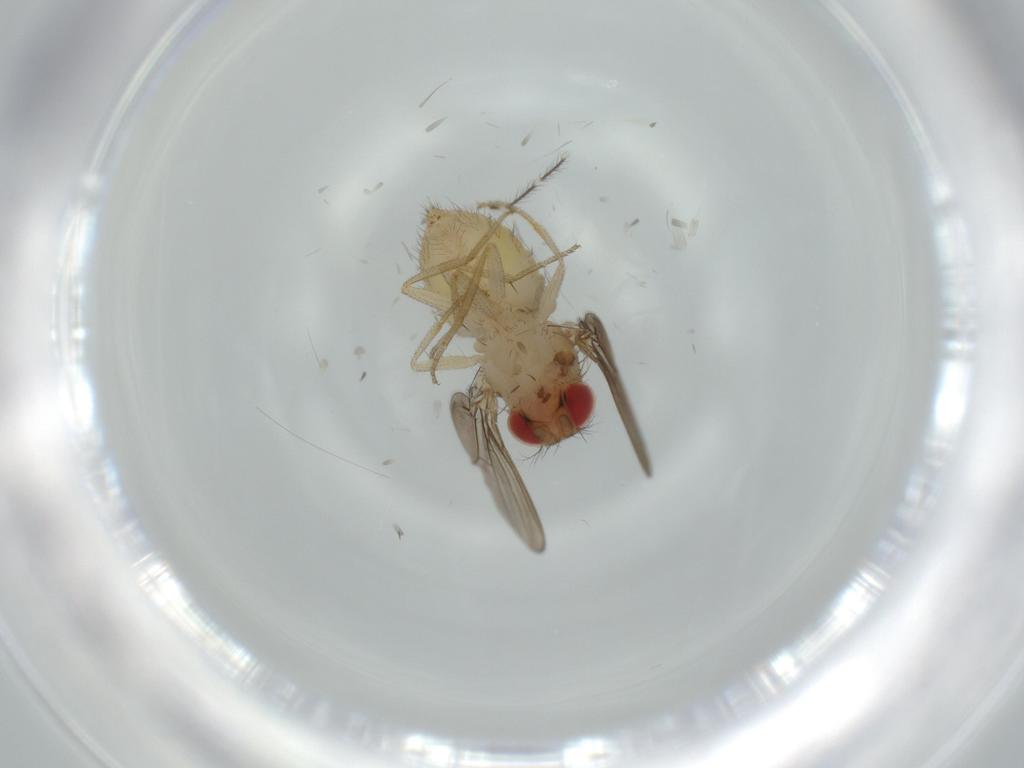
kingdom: Animalia
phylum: Arthropoda
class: Insecta
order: Diptera
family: Drosophilidae
